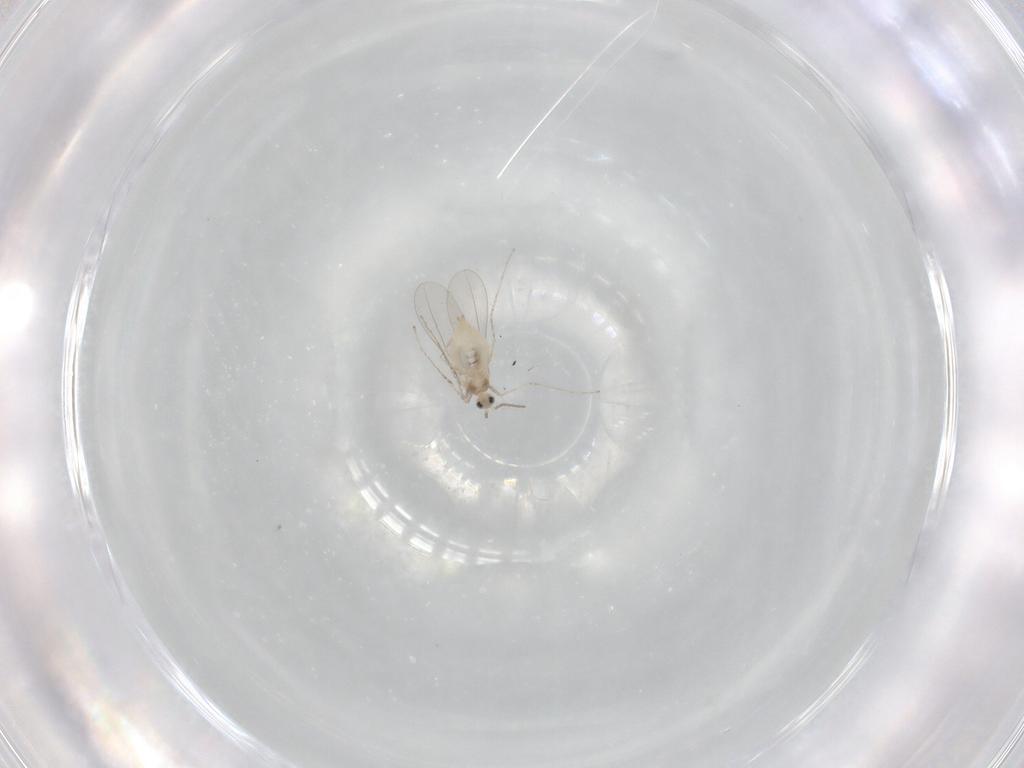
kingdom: Animalia
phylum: Arthropoda
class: Insecta
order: Diptera
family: Cecidomyiidae
